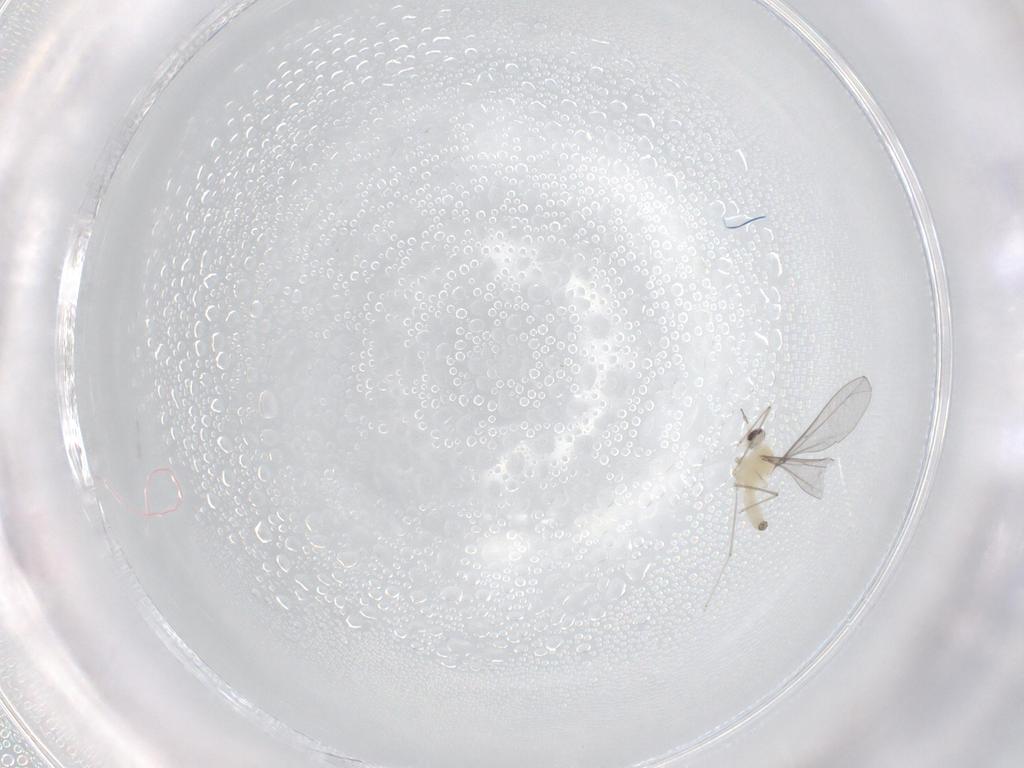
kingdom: Animalia
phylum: Arthropoda
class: Insecta
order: Diptera
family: Cecidomyiidae
